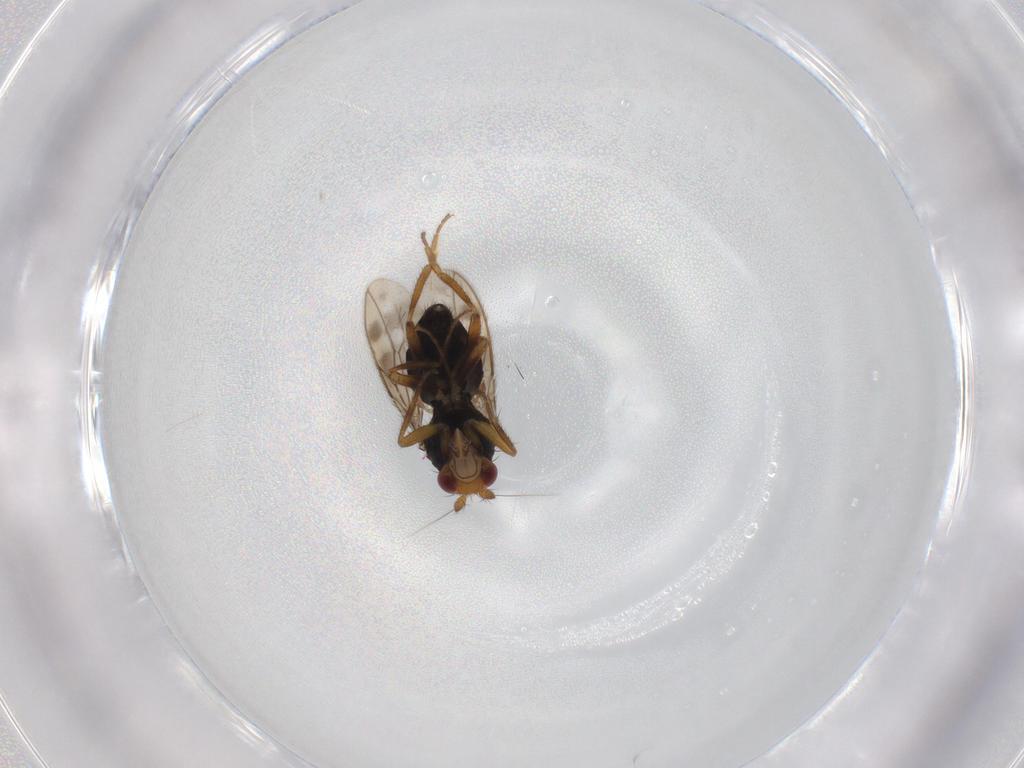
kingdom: Animalia
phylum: Arthropoda
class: Insecta
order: Diptera
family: Sphaeroceridae
